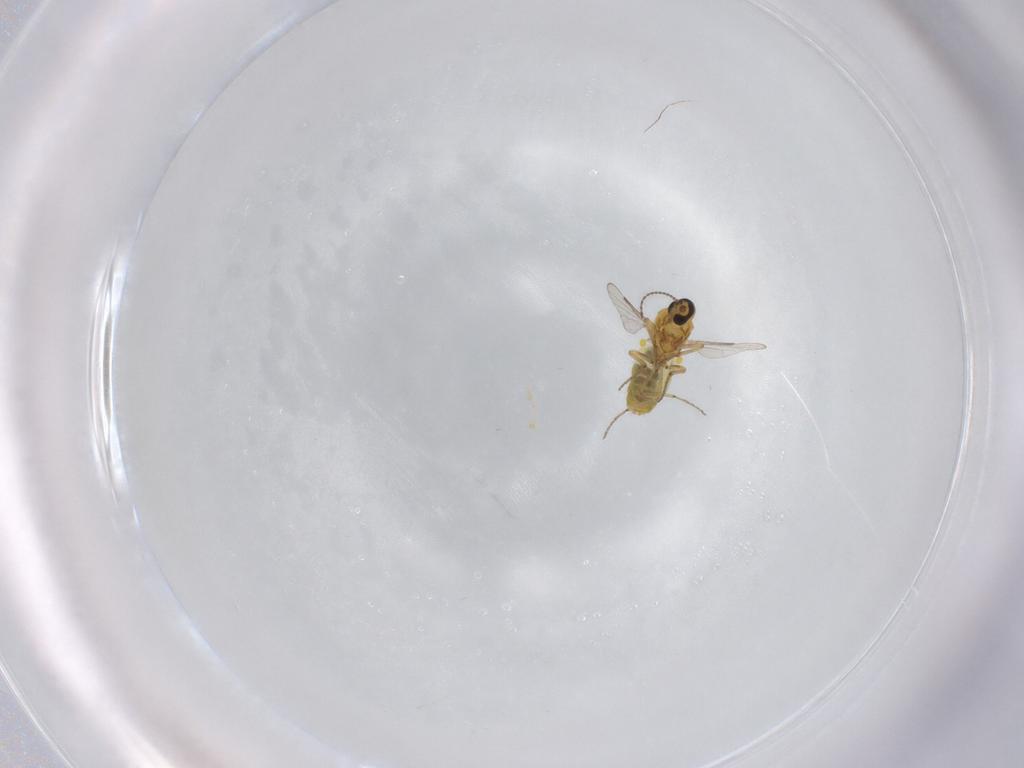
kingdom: Animalia
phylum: Arthropoda
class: Insecta
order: Diptera
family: Ceratopogonidae
